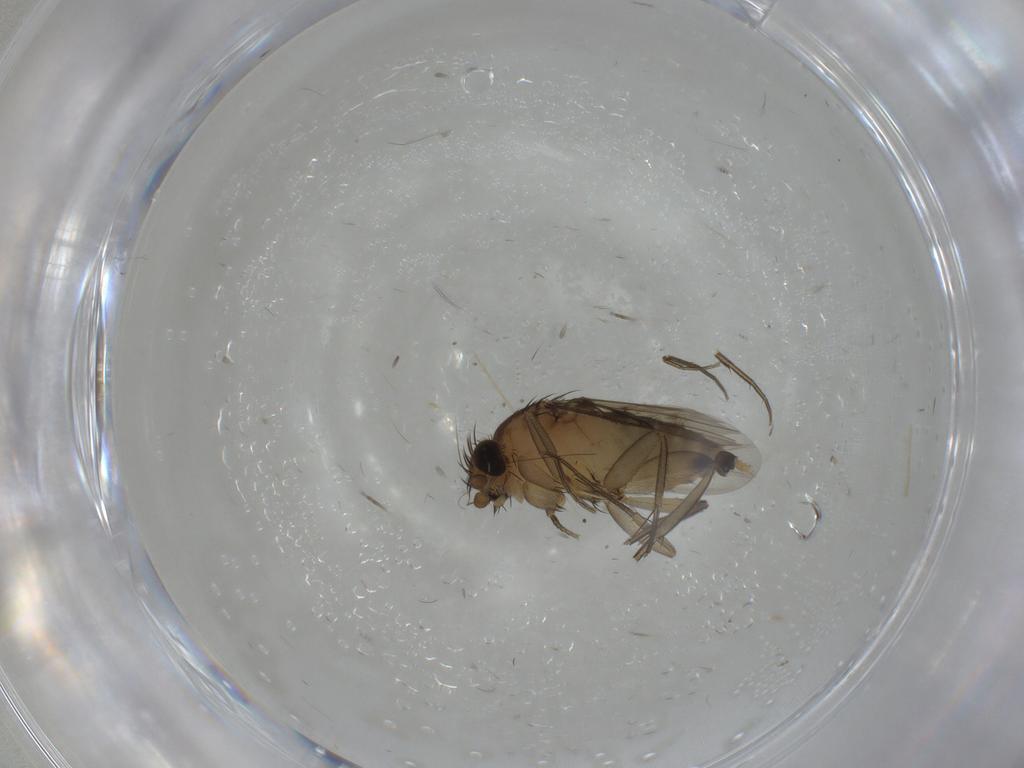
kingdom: Animalia
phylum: Arthropoda
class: Insecta
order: Diptera
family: Phoridae
